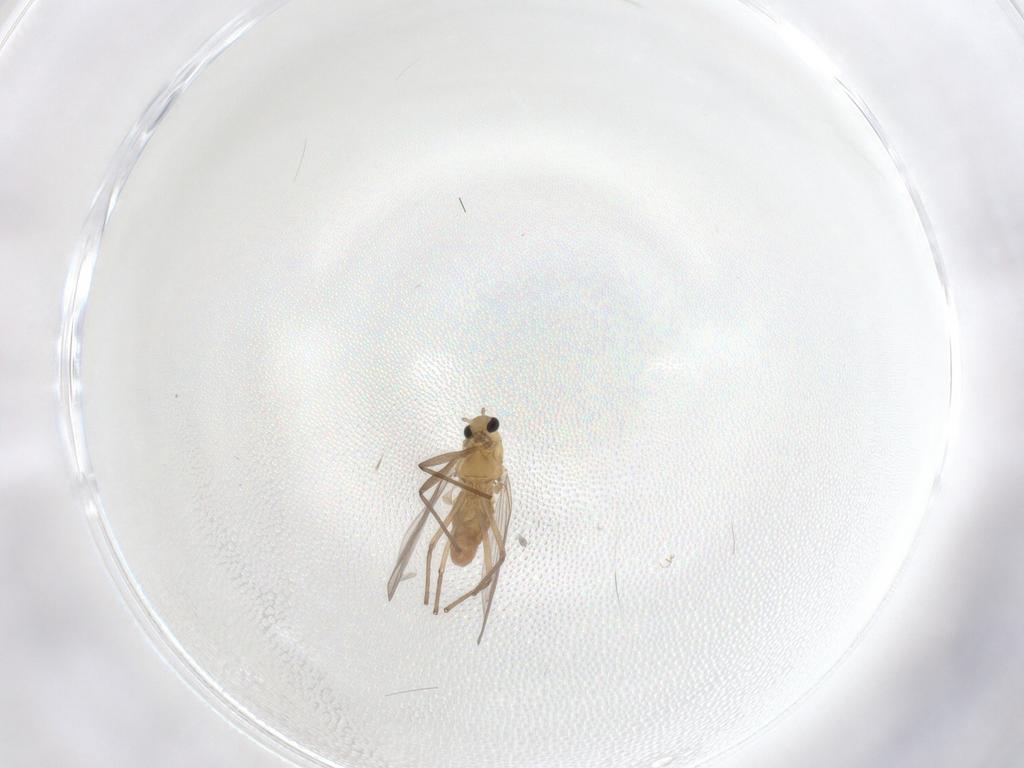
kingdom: Animalia
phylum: Arthropoda
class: Insecta
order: Diptera
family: Chironomidae
